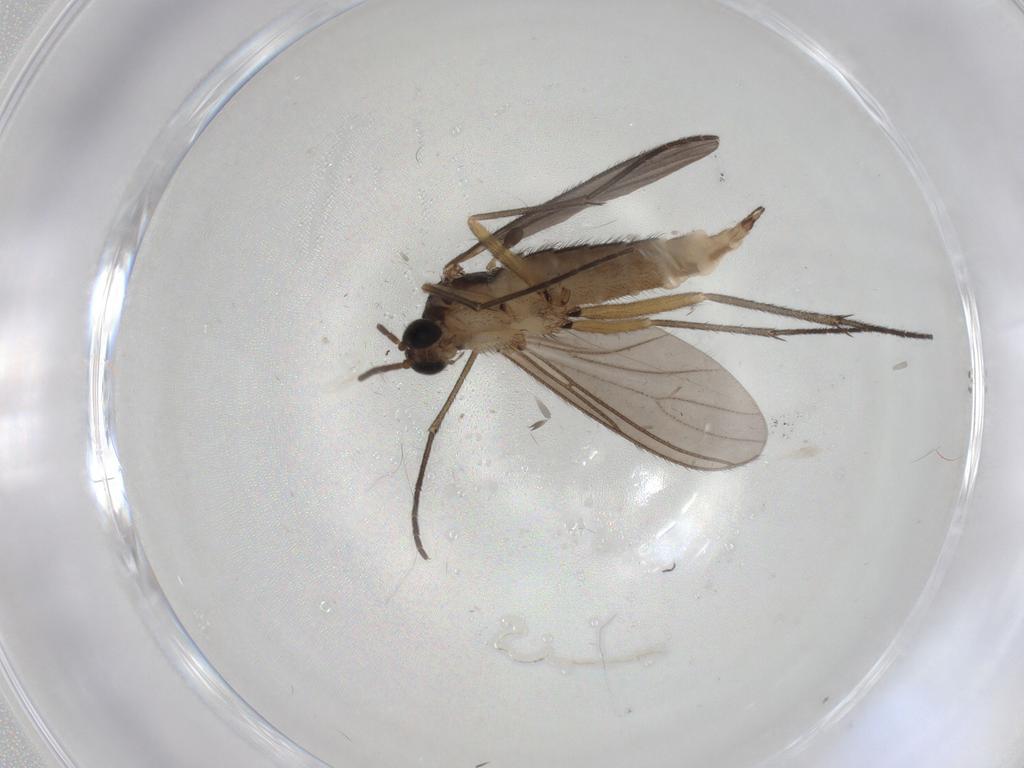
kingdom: Animalia
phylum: Arthropoda
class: Insecta
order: Diptera
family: Sciaridae
